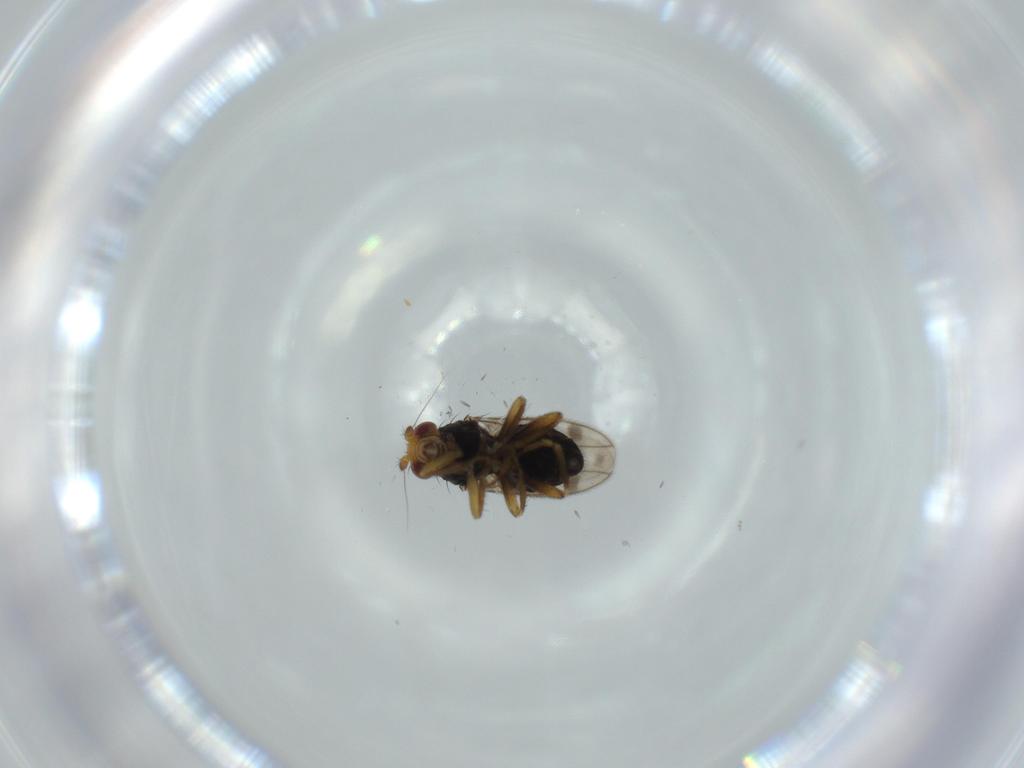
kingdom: Animalia
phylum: Arthropoda
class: Insecta
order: Diptera
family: Sphaeroceridae
